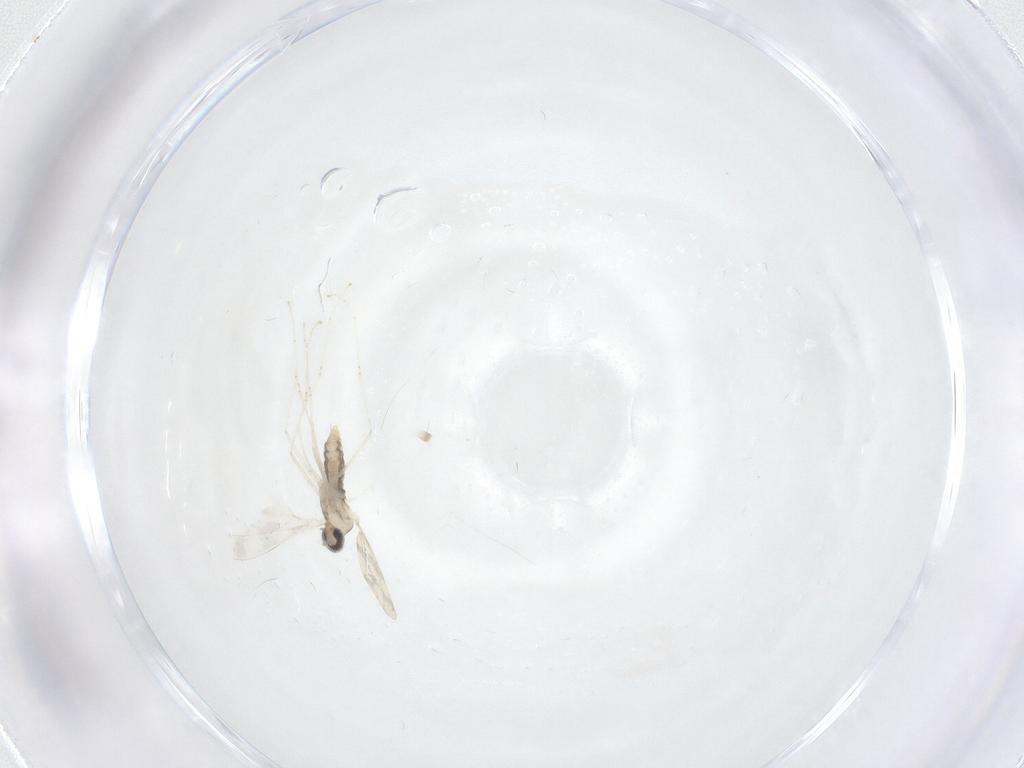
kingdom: Animalia
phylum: Arthropoda
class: Insecta
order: Diptera
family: Cecidomyiidae
